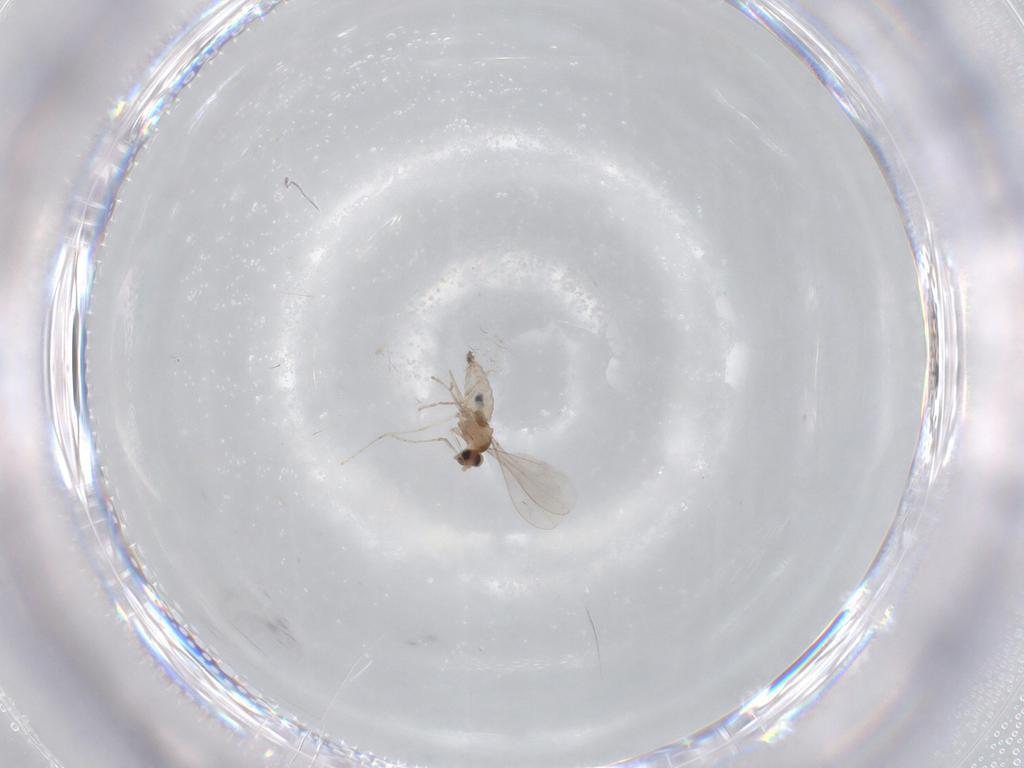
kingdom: Animalia
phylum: Arthropoda
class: Insecta
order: Diptera
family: Cecidomyiidae
